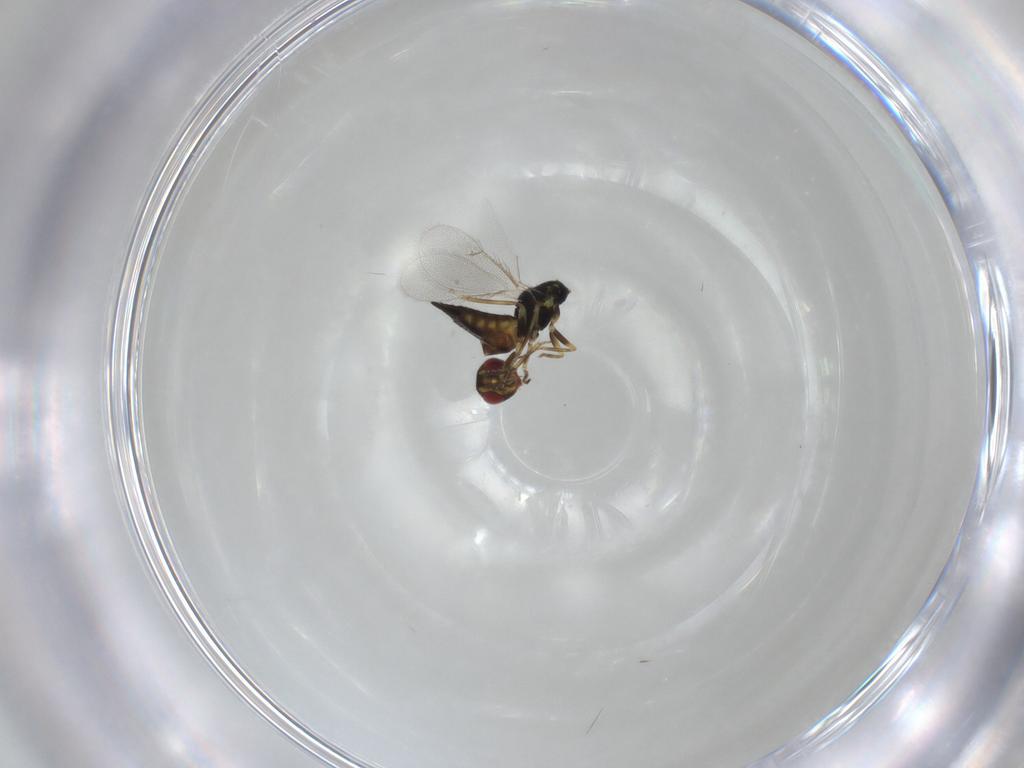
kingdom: Animalia
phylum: Arthropoda
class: Insecta
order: Hymenoptera
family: Eulophidae
